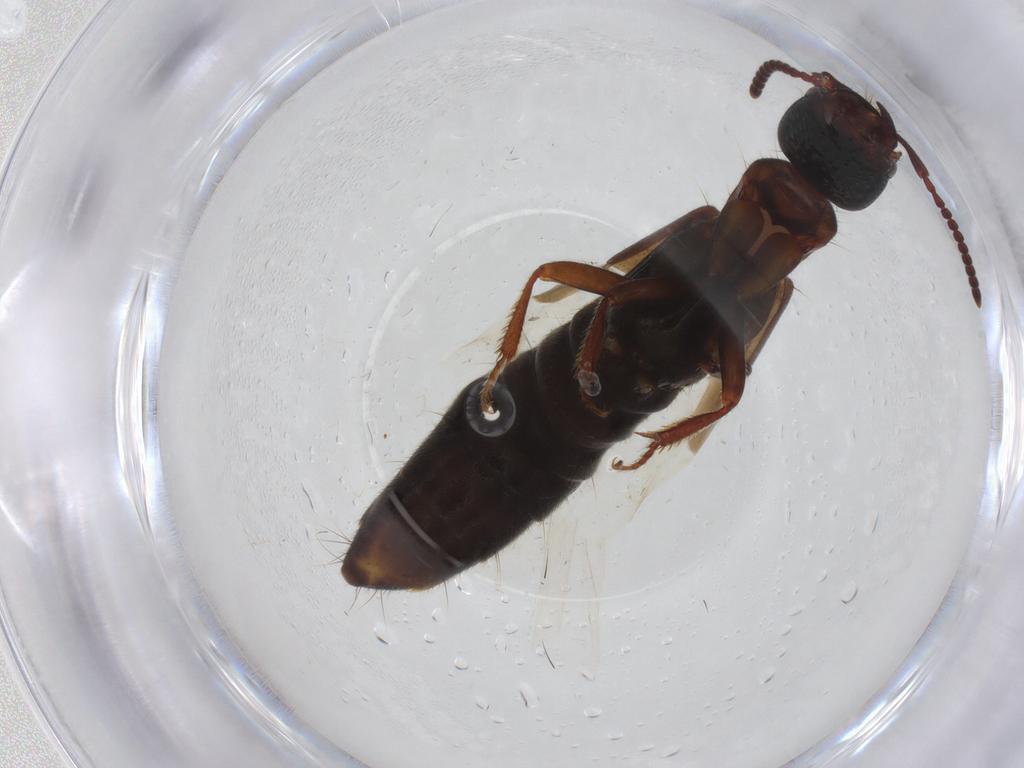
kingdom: Animalia
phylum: Arthropoda
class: Insecta
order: Coleoptera
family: Staphylinidae
